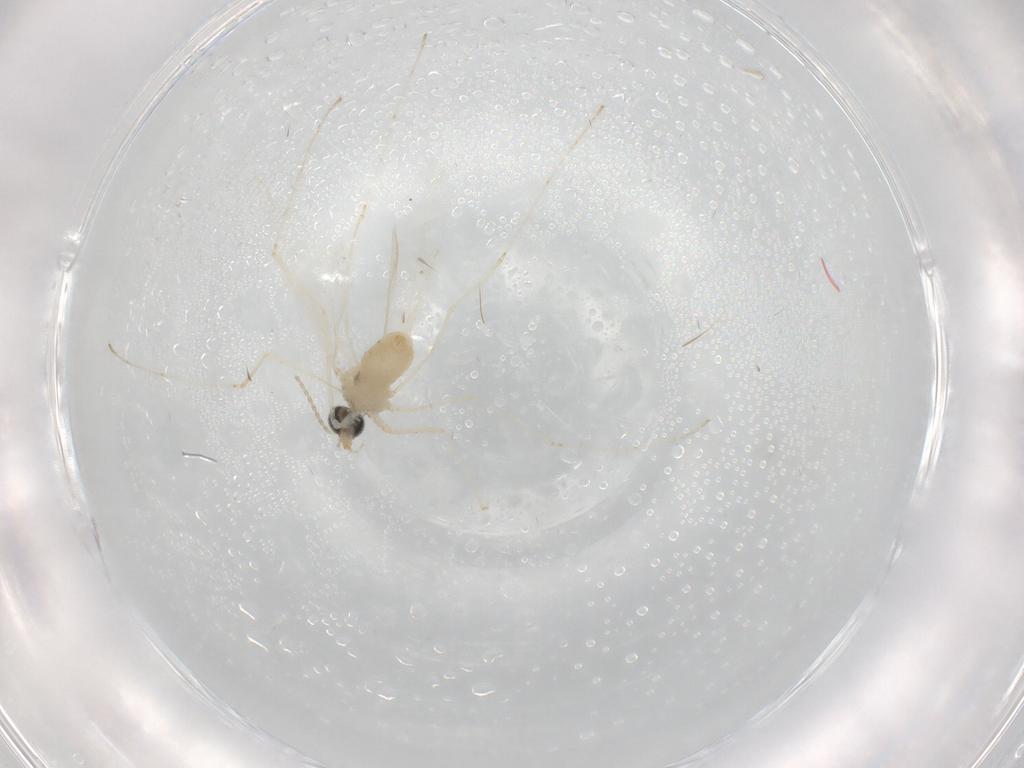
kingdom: Animalia
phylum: Arthropoda
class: Insecta
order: Diptera
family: Cecidomyiidae
